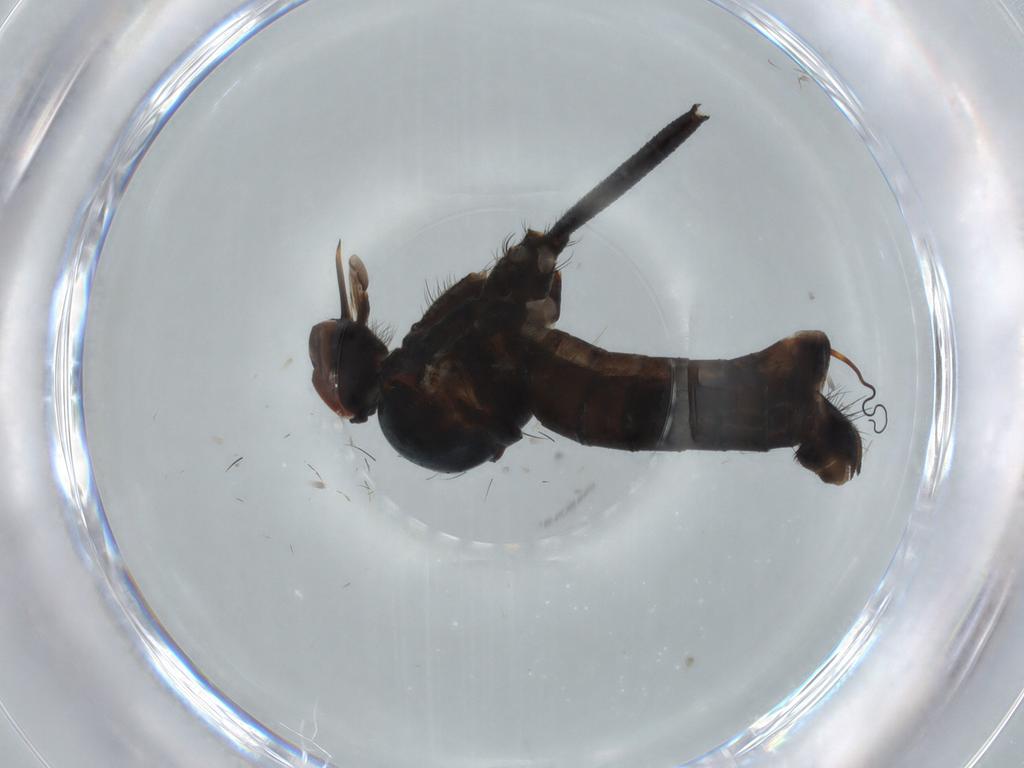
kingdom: Animalia
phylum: Arthropoda
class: Insecta
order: Diptera
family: Empididae
